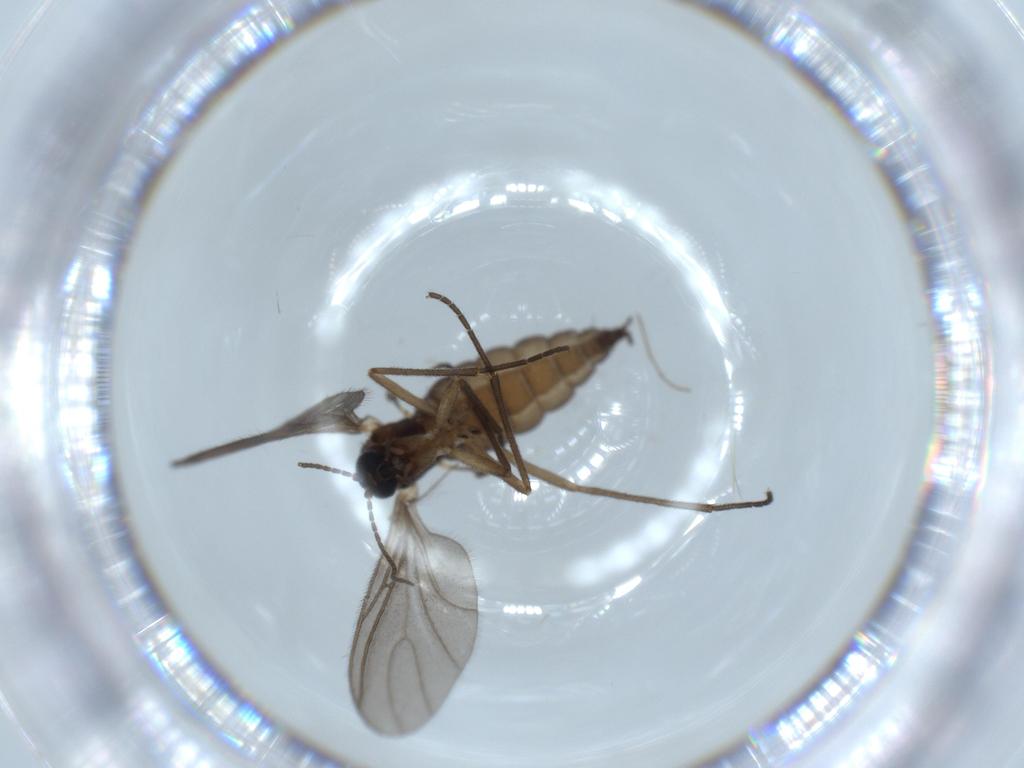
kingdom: Animalia
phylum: Arthropoda
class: Insecta
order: Diptera
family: Sciaridae
